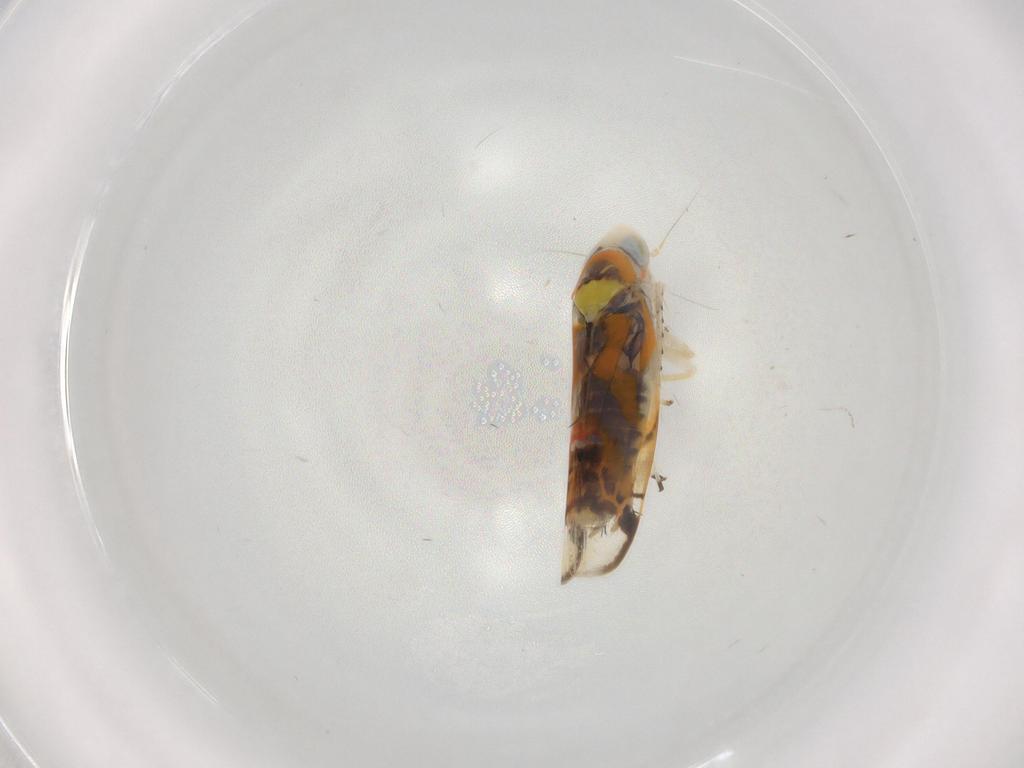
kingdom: Animalia
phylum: Arthropoda
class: Insecta
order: Hemiptera
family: Cicadellidae
